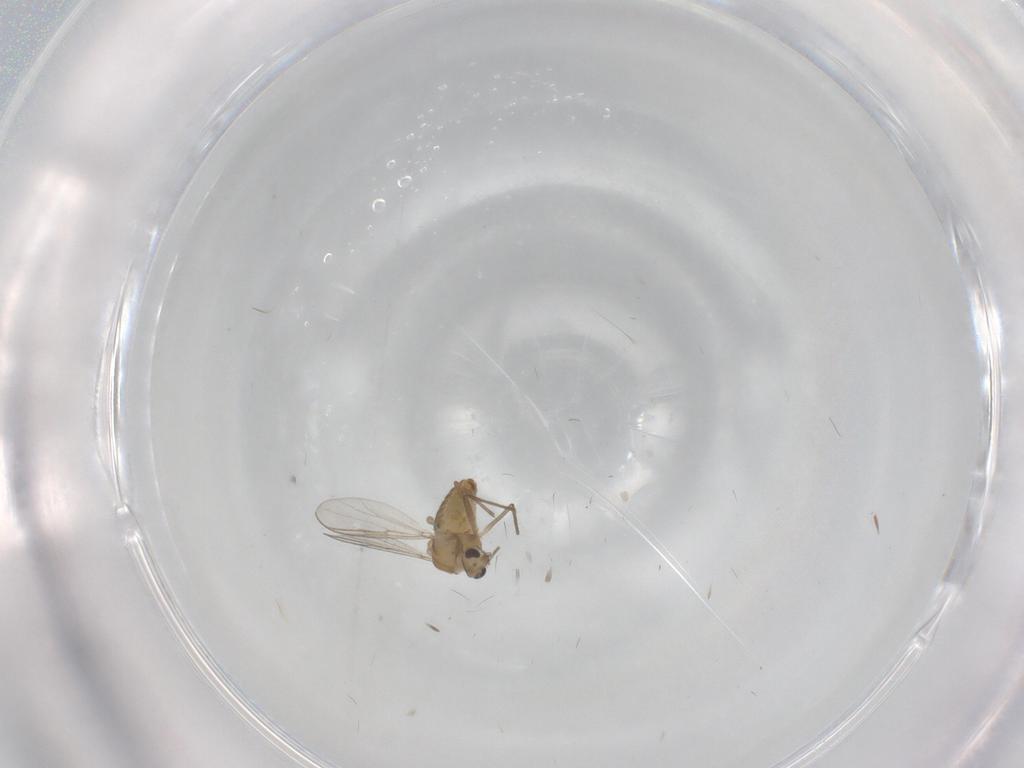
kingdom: Animalia
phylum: Arthropoda
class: Insecta
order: Diptera
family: Chironomidae
